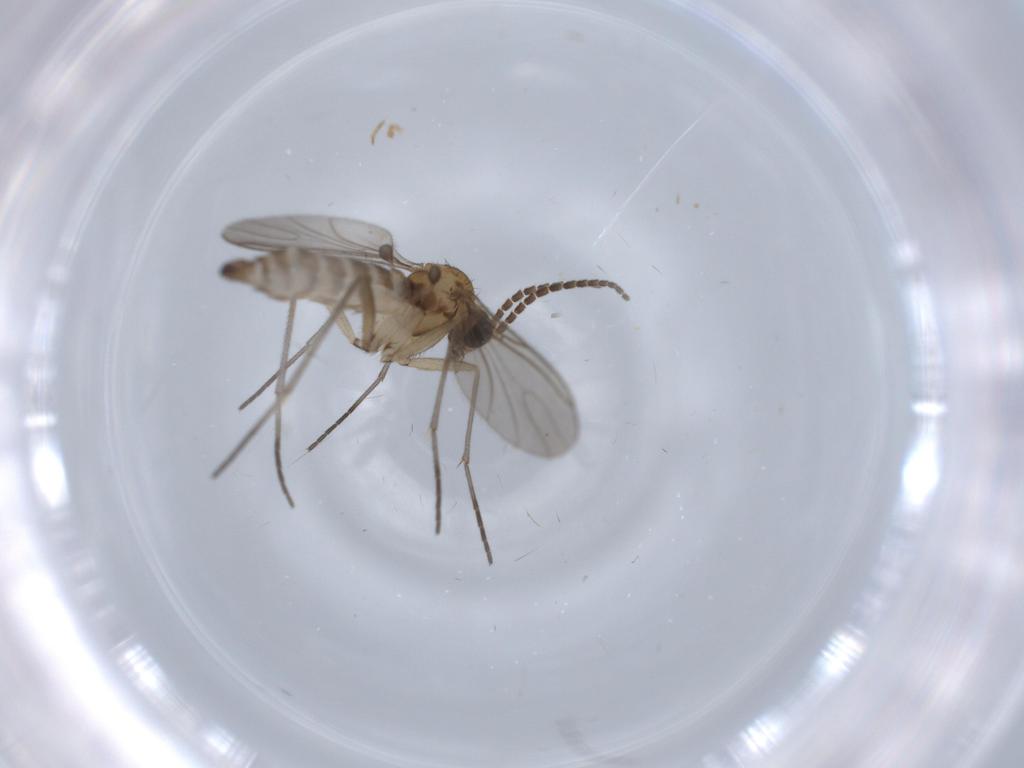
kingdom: Animalia
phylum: Arthropoda
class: Insecta
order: Diptera
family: Sciaridae
